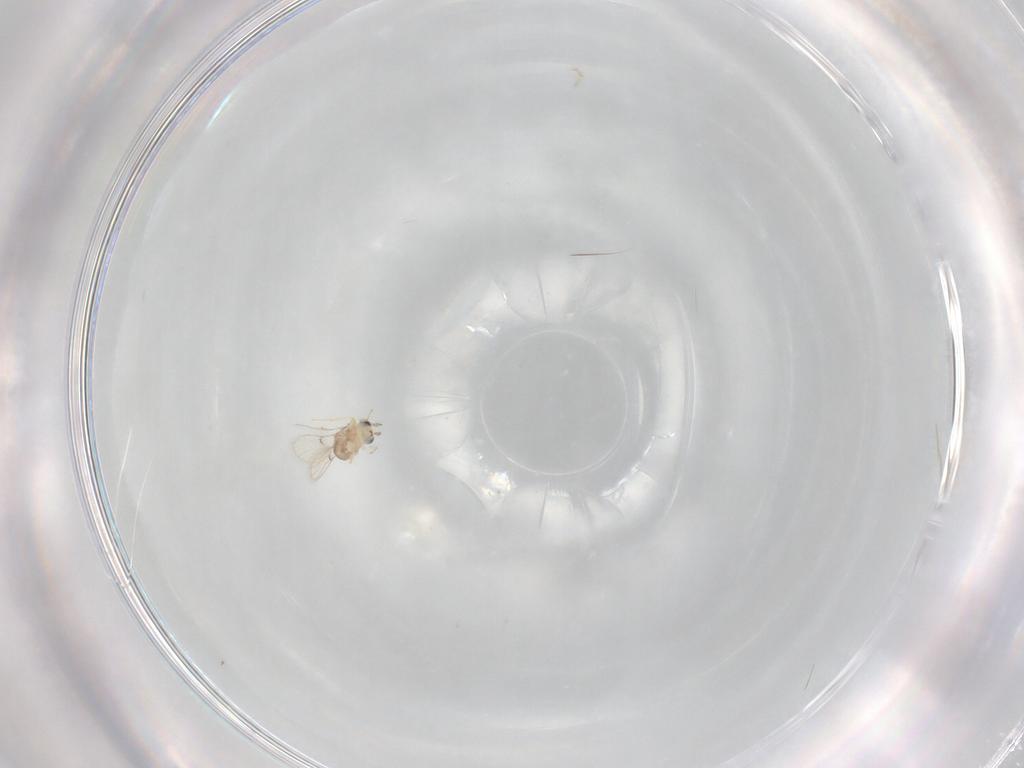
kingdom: Animalia
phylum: Arthropoda
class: Insecta
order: Hymenoptera
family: Trichogrammatidae
